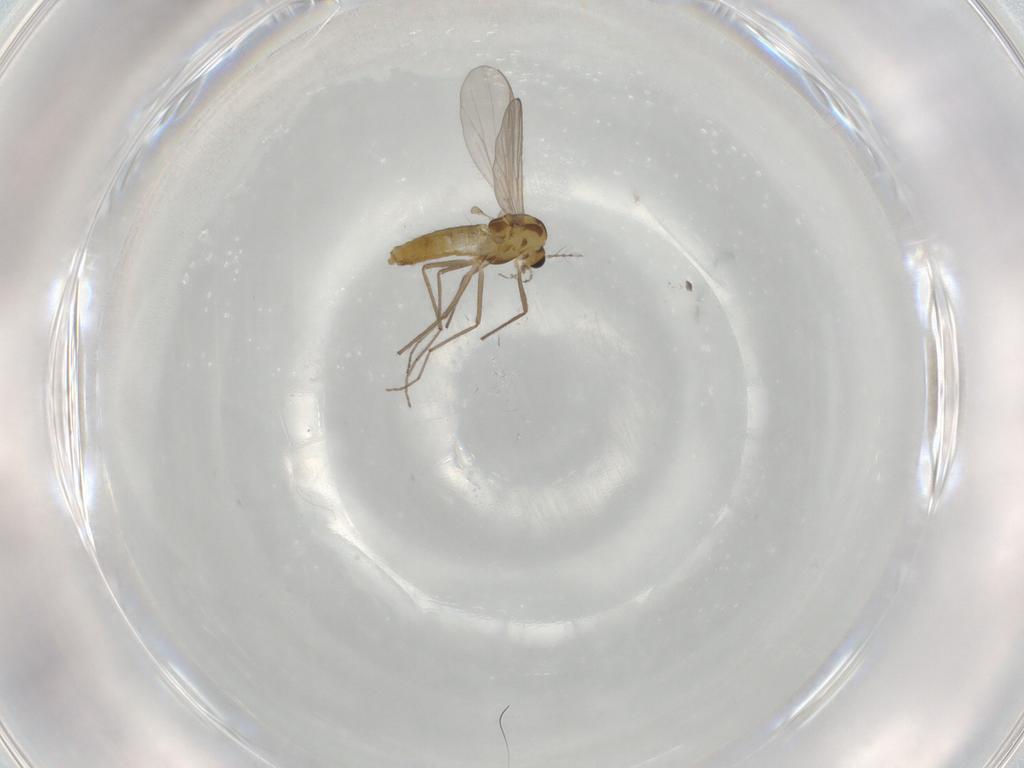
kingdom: Animalia
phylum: Arthropoda
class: Insecta
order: Diptera
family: Chironomidae
